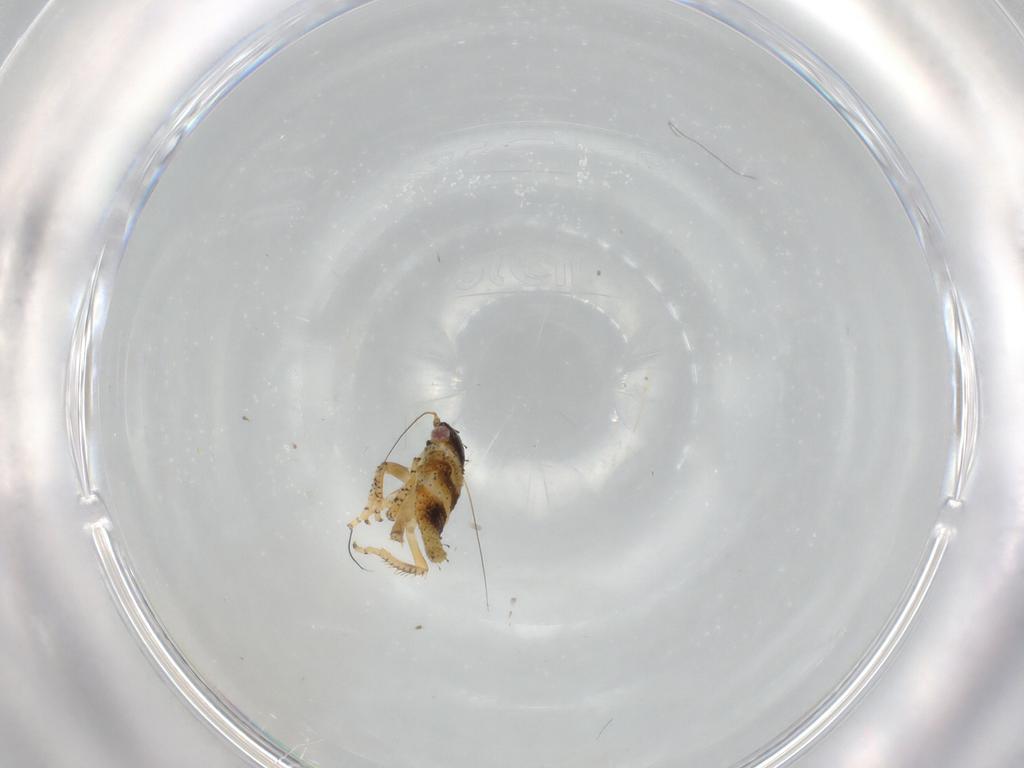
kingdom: Animalia
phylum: Arthropoda
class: Insecta
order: Hemiptera
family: Cicadellidae
